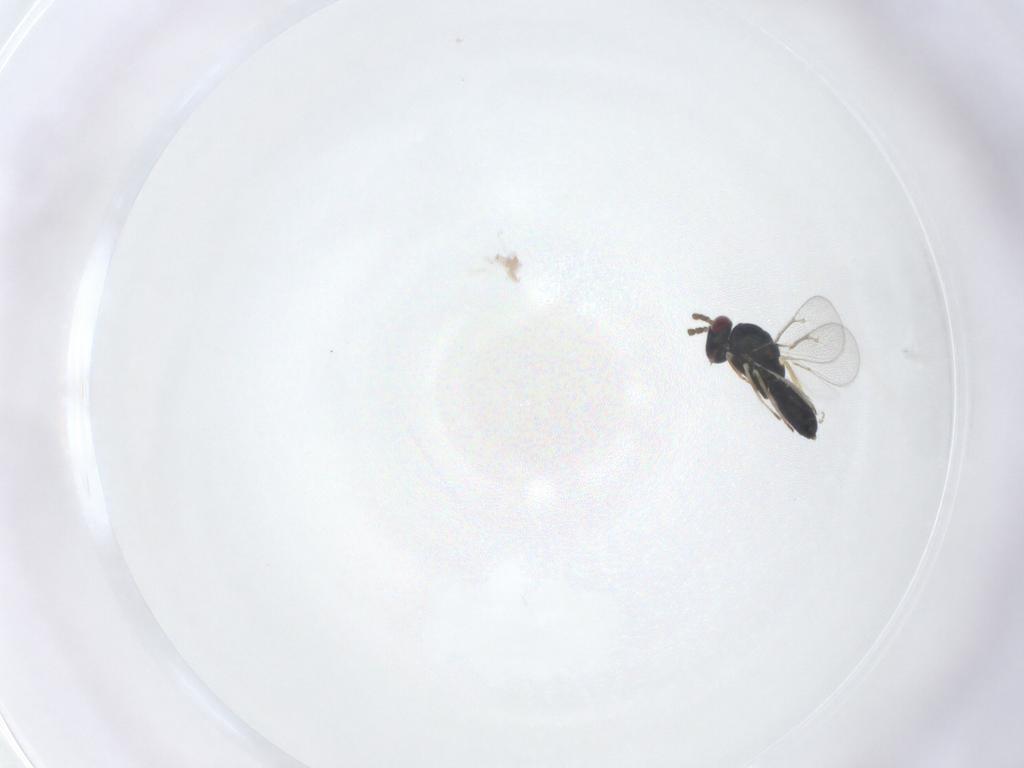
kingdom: Animalia
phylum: Arthropoda
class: Insecta
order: Hymenoptera
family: Eulophidae
